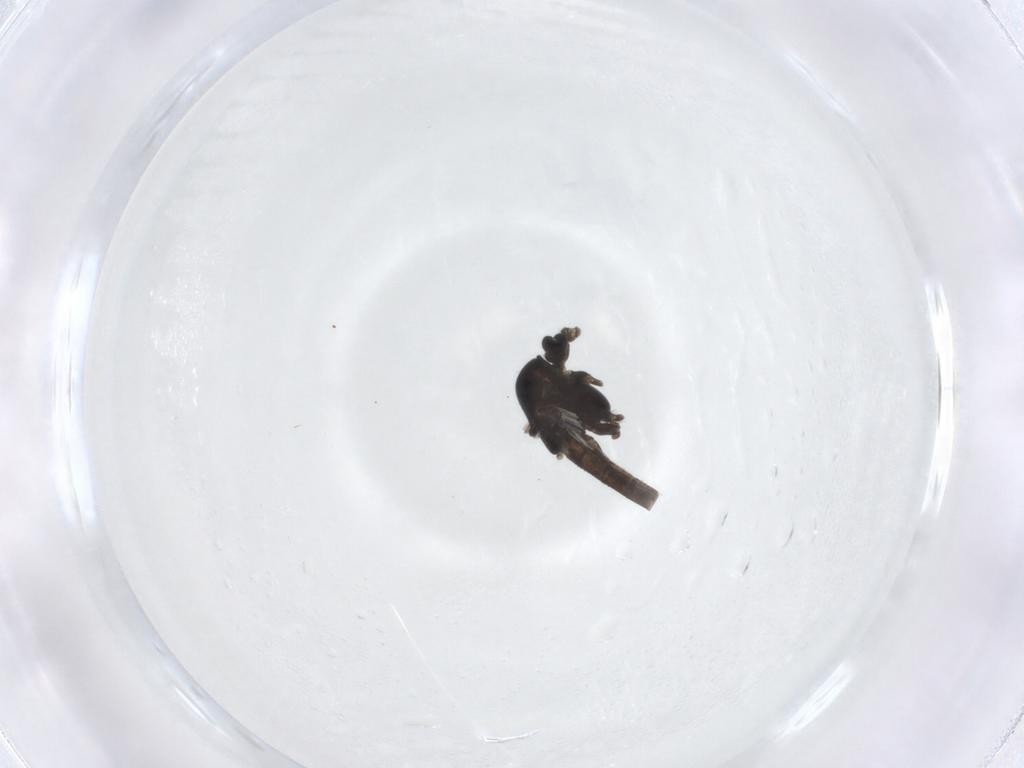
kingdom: Animalia
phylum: Arthropoda
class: Insecta
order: Diptera
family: Chironomidae
